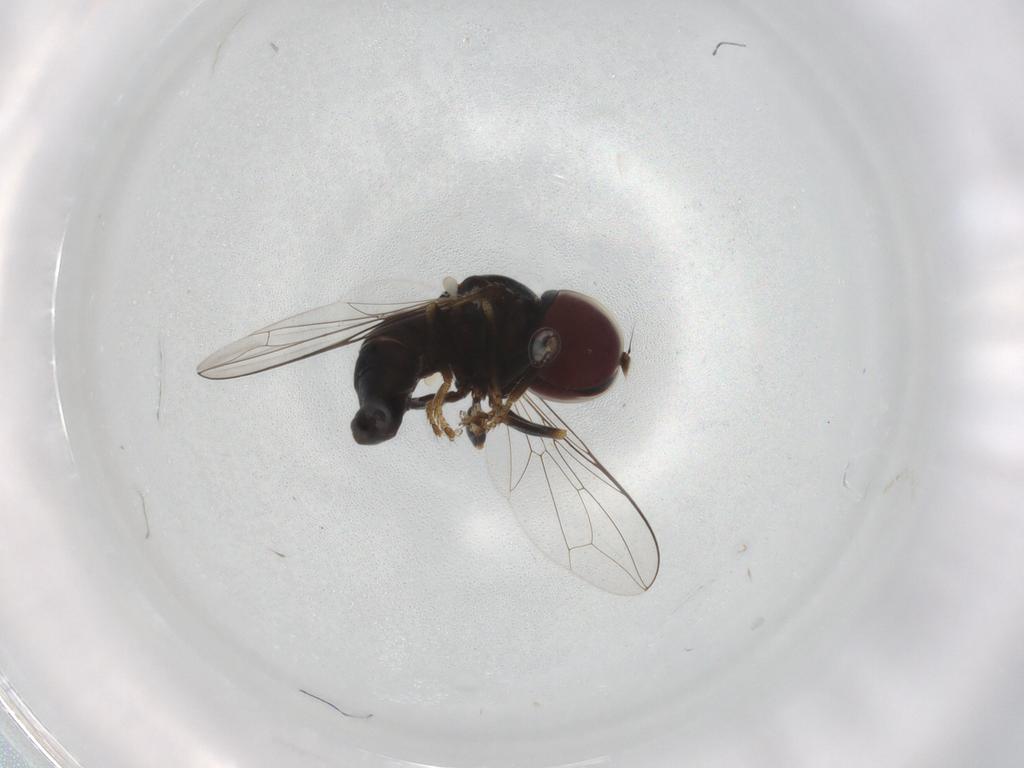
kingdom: Animalia
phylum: Arthropoda
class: Insecta
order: Diptera
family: Pipunculidae
